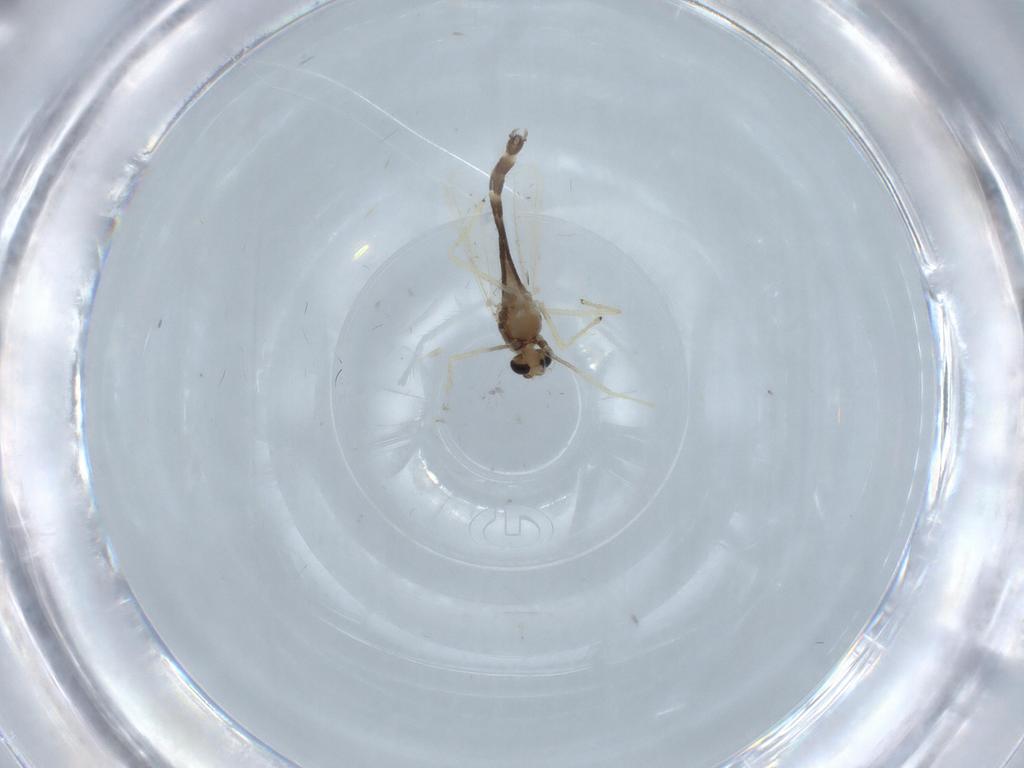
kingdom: Animalia
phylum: Arthropoda
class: Insecta
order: Diptera
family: Chironomidae
